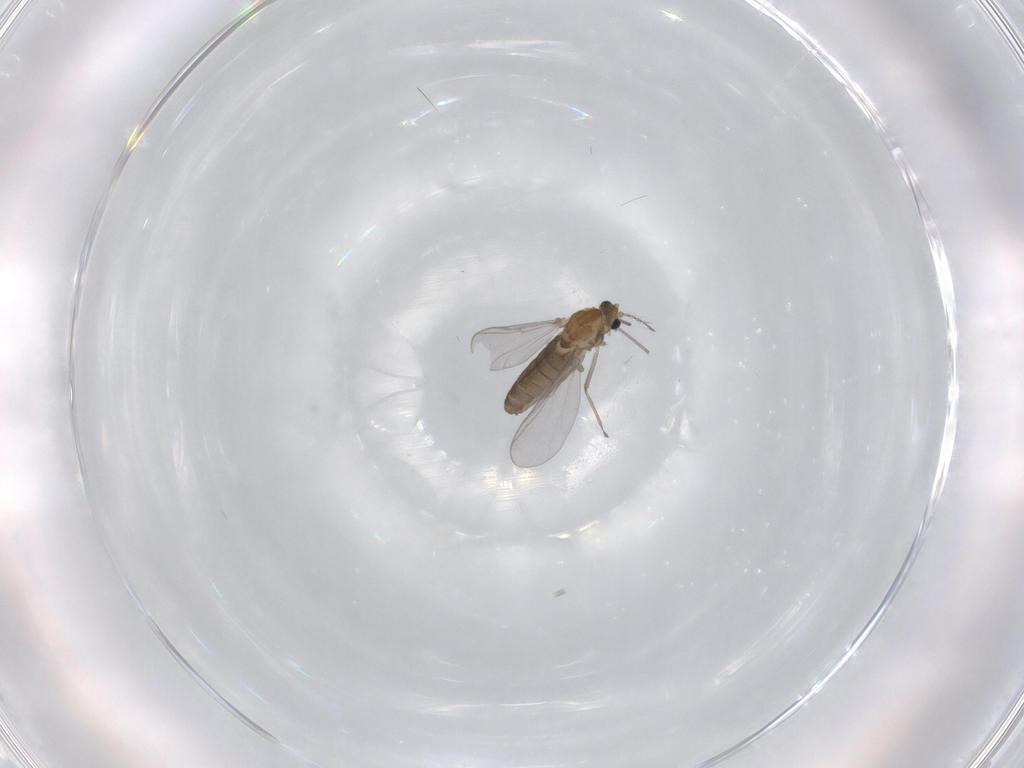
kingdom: Animalia
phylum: Arthropoda
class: Insecta
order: Diptera
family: Chironomidae
